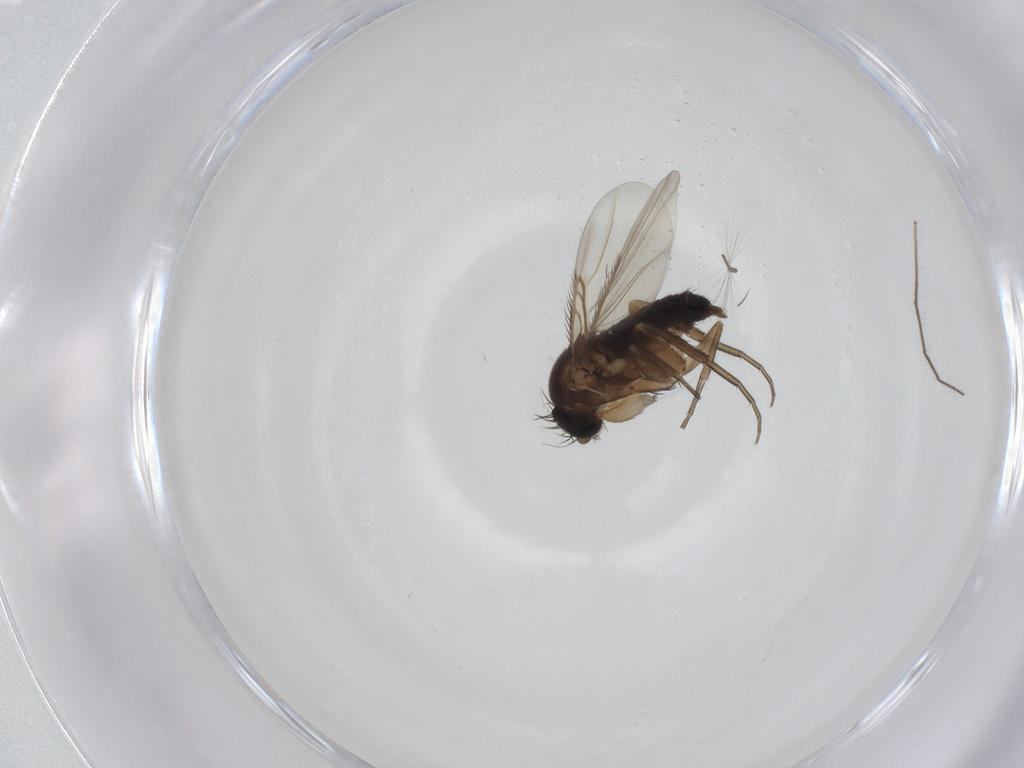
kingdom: Animalia
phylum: Arthropoda
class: Insecta
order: Diptera
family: Phoridae
